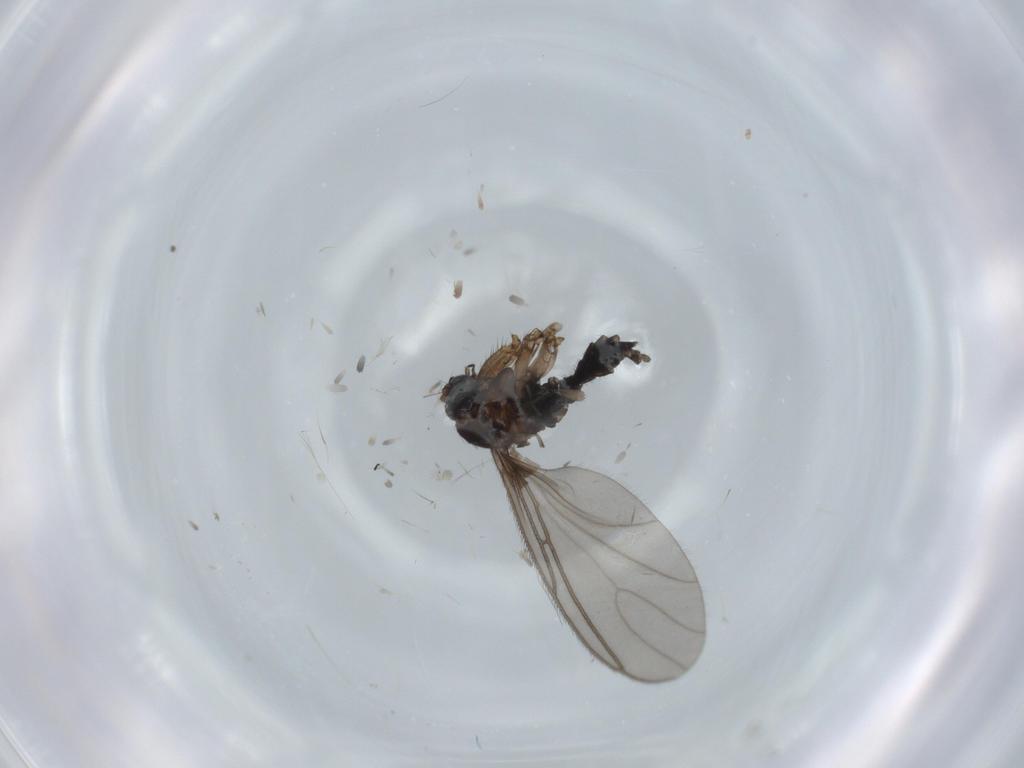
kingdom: Animalia
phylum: Arthropoda
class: Insecta
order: Diptera
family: Sciaridae
